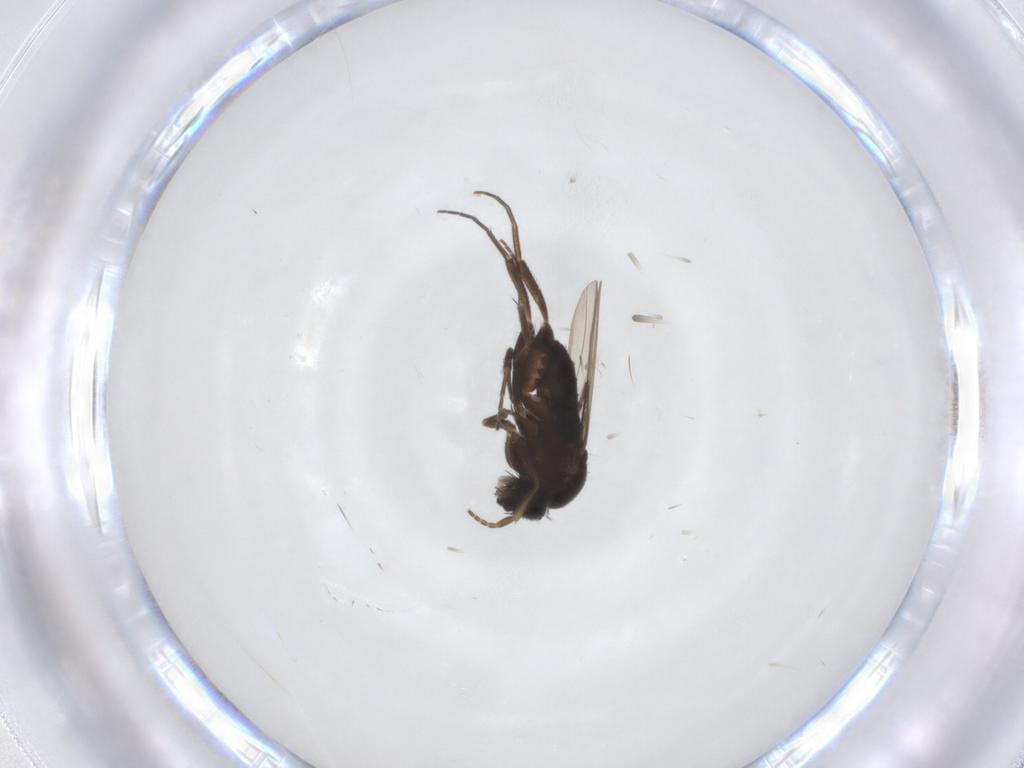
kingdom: Animalia
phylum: Arthropoda
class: Insecta
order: Diptera
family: Phoridae
